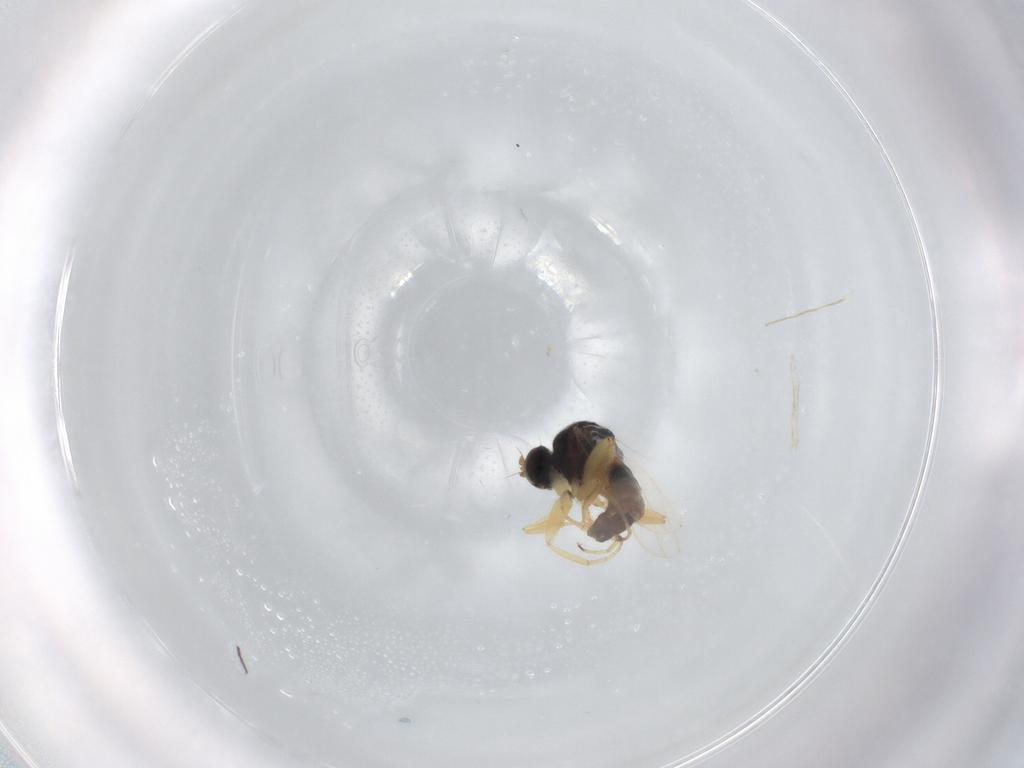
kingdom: Animalia
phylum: Arthropoda
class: Insecta
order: Diptera
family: Hybotidae
